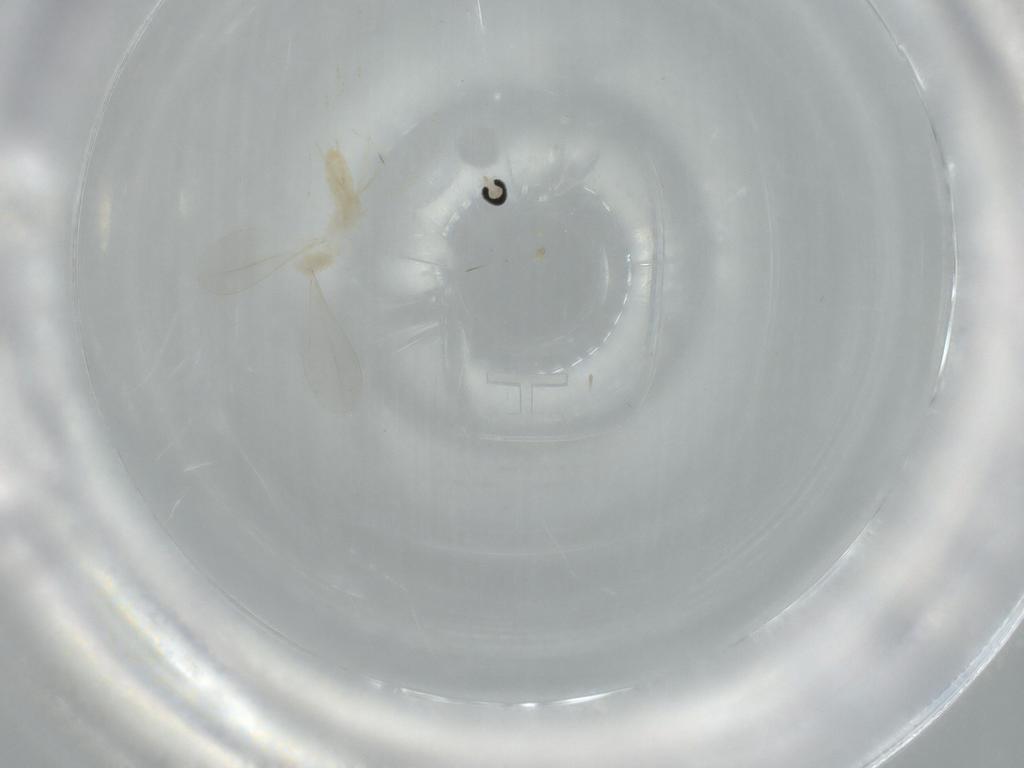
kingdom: Animalia
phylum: Arthropoda
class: Insecta
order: Diptera
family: Cecidomyiidae
